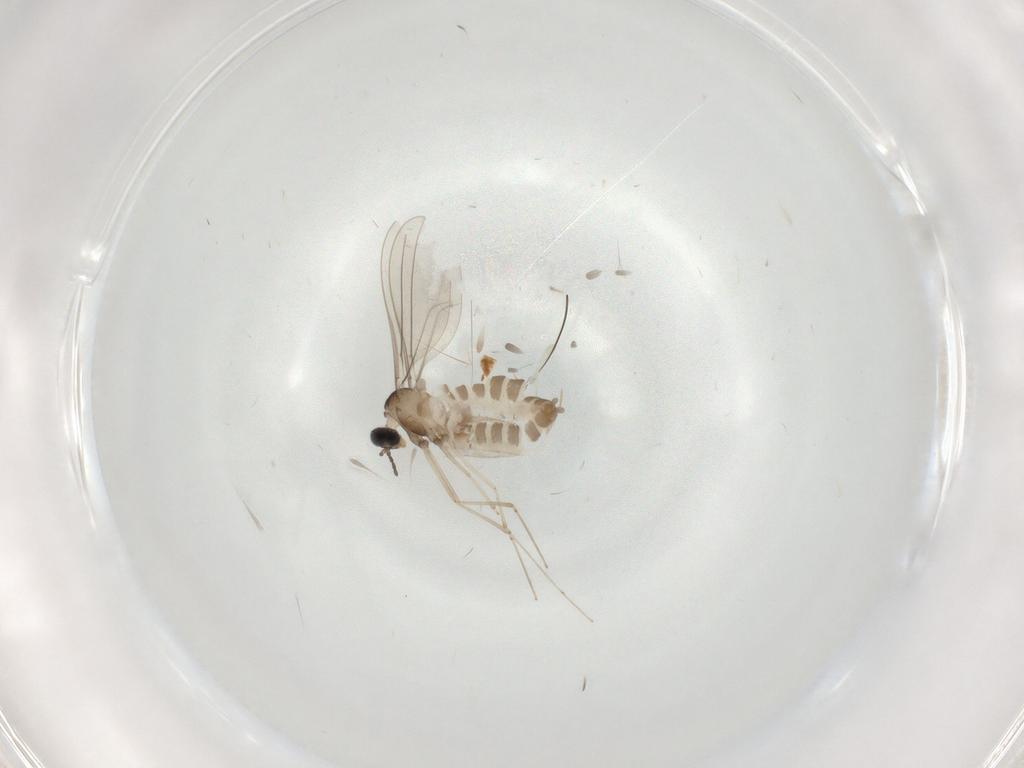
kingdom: Animalia
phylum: Arthropoda
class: Insecta
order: Diptera
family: Cecidomyiidae
